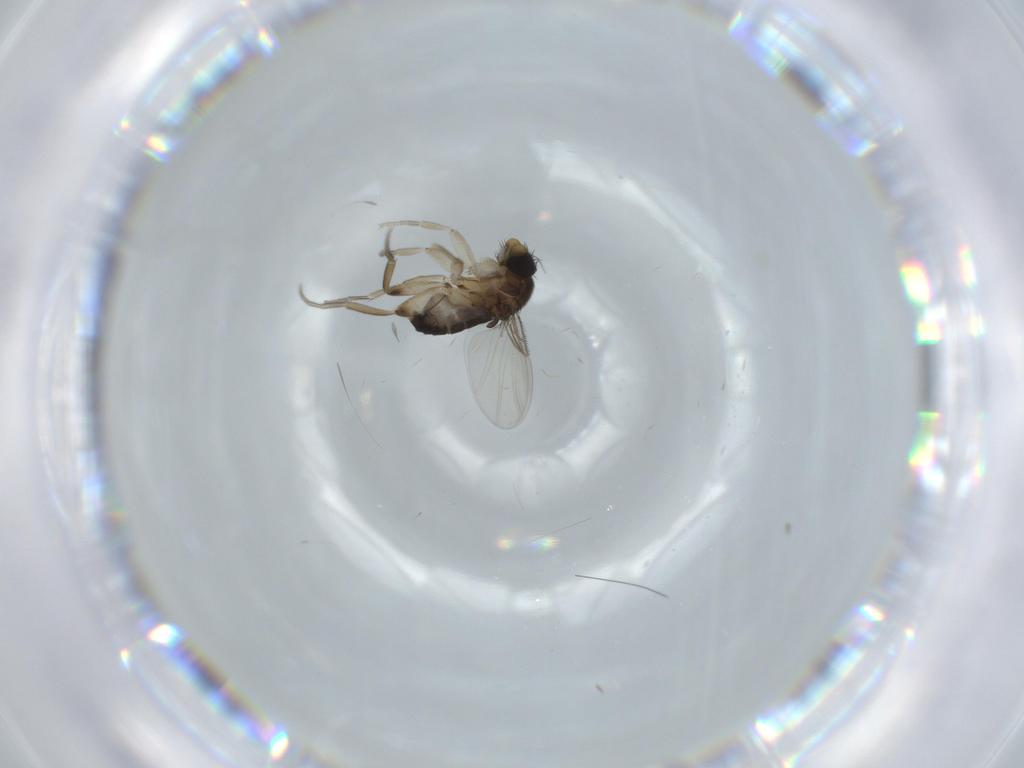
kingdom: Animalia
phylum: Arthropoda
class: Insecta
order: Diptera
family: Phoridae
